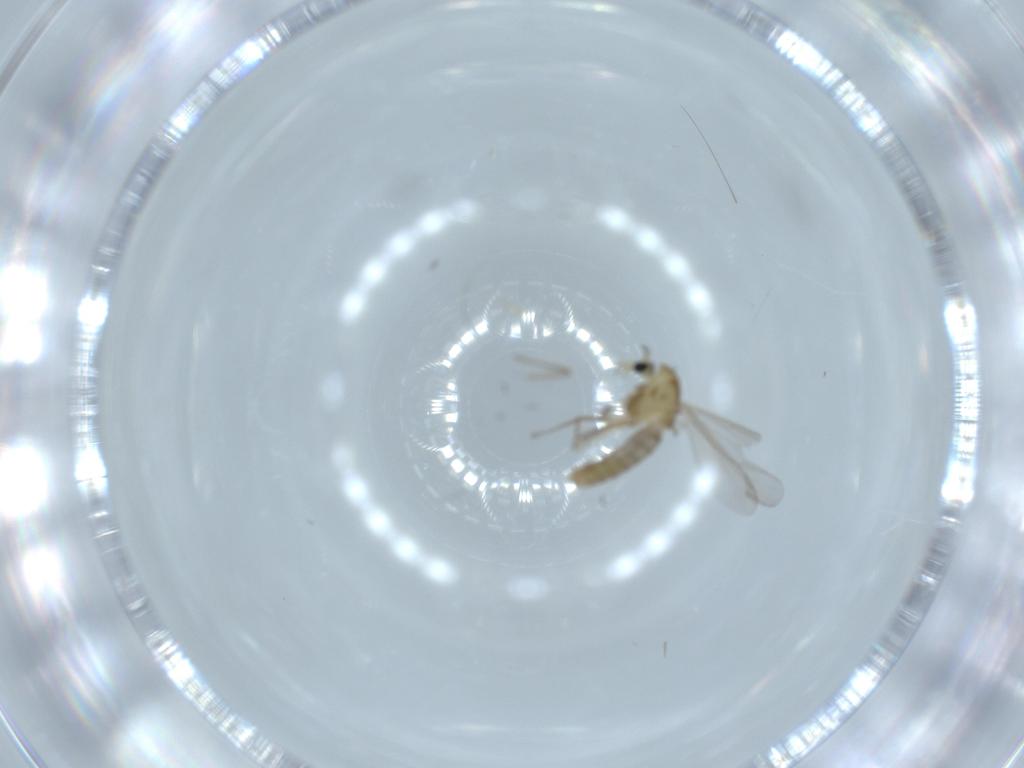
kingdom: Animalia
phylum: Arthropoda
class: Insecta
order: Diptera
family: Chironomidae
